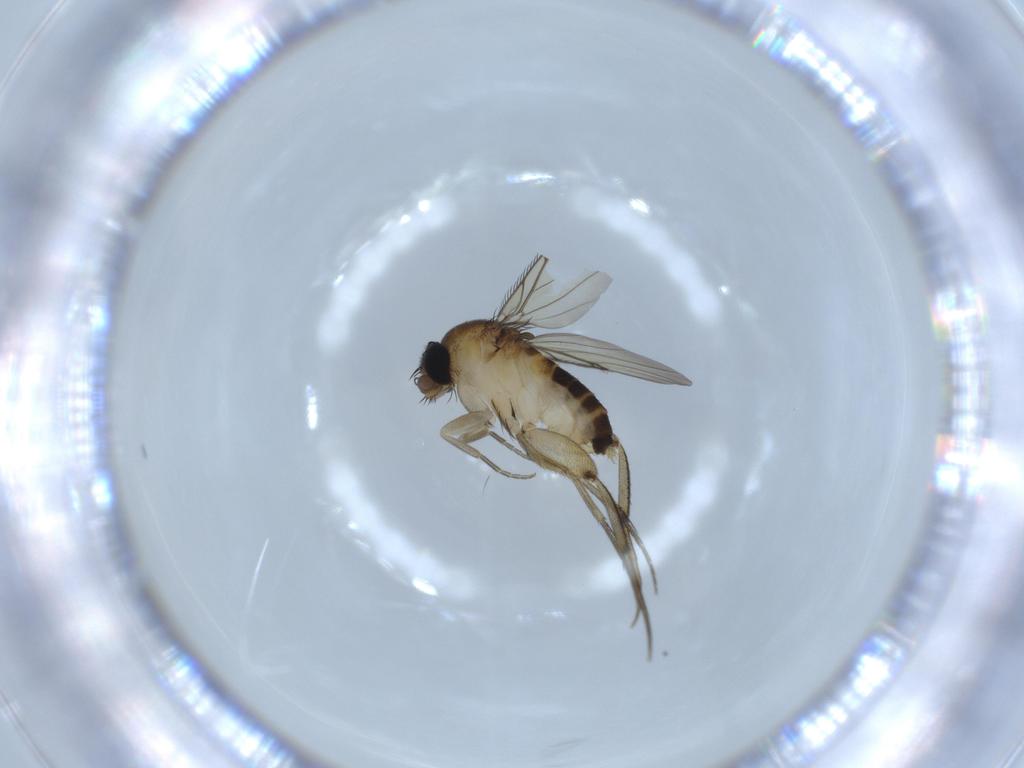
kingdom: Animalia
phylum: Arthropoda
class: Insecta
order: Diptera
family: Phoridae
